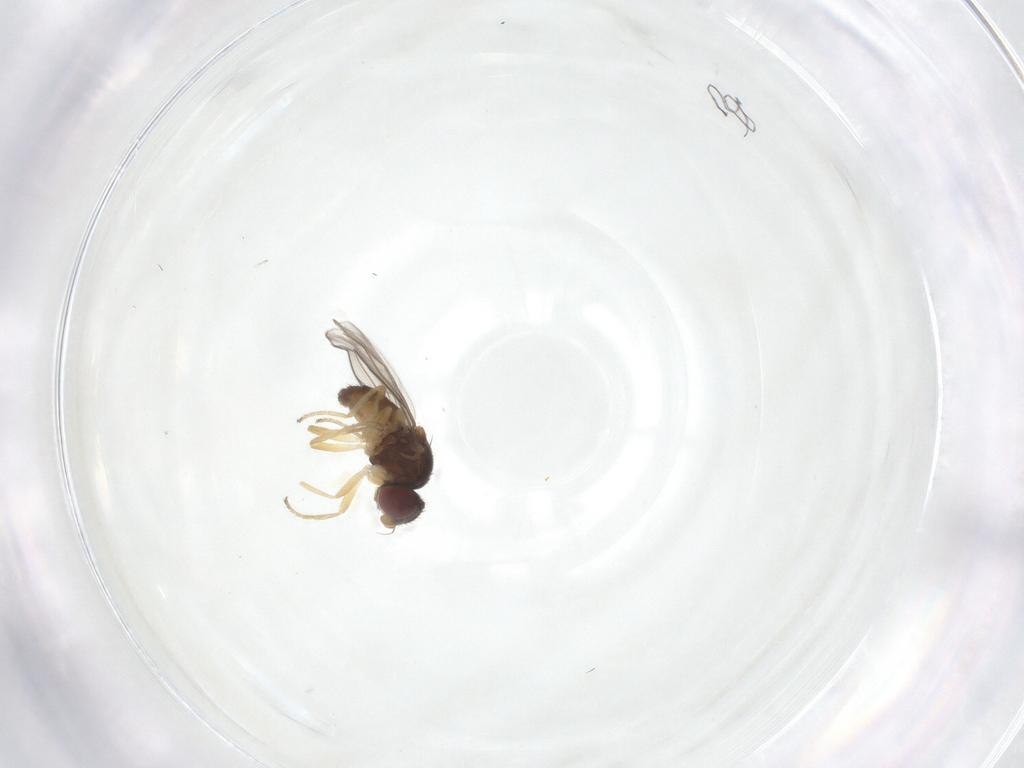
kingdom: Animalia
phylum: Arthropoda
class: Insecta
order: Diptera
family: Chloropidae
